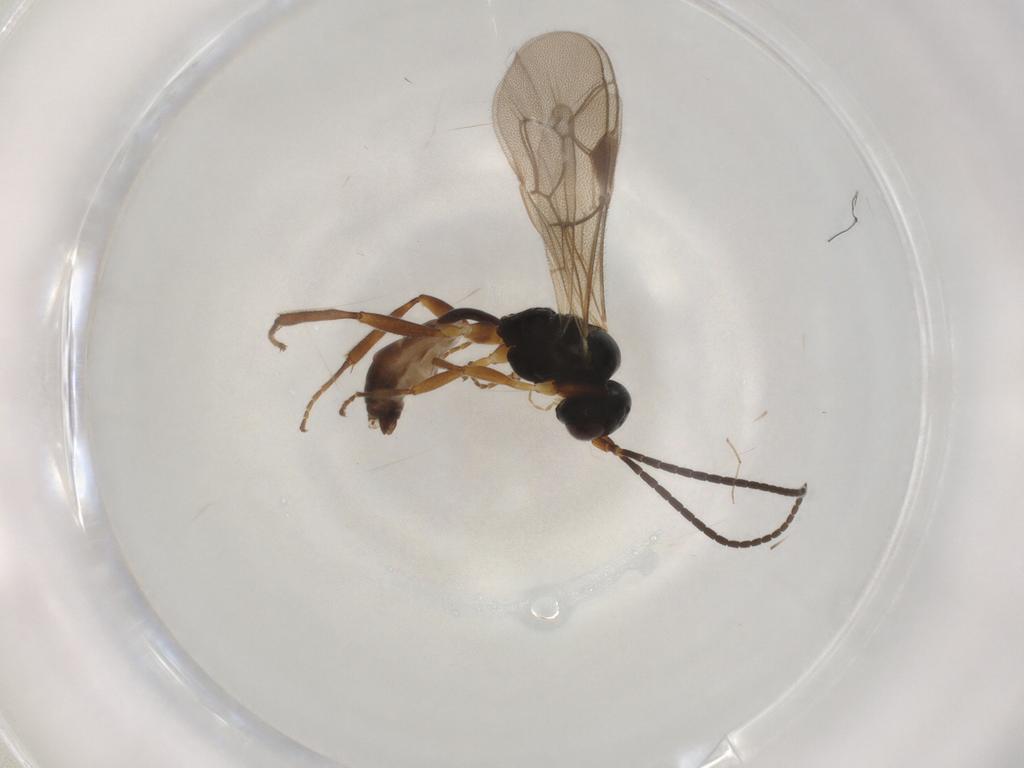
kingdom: Animalia
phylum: Arthropoda
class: Insecta
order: Hymenoptera
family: Ichneumonidae
